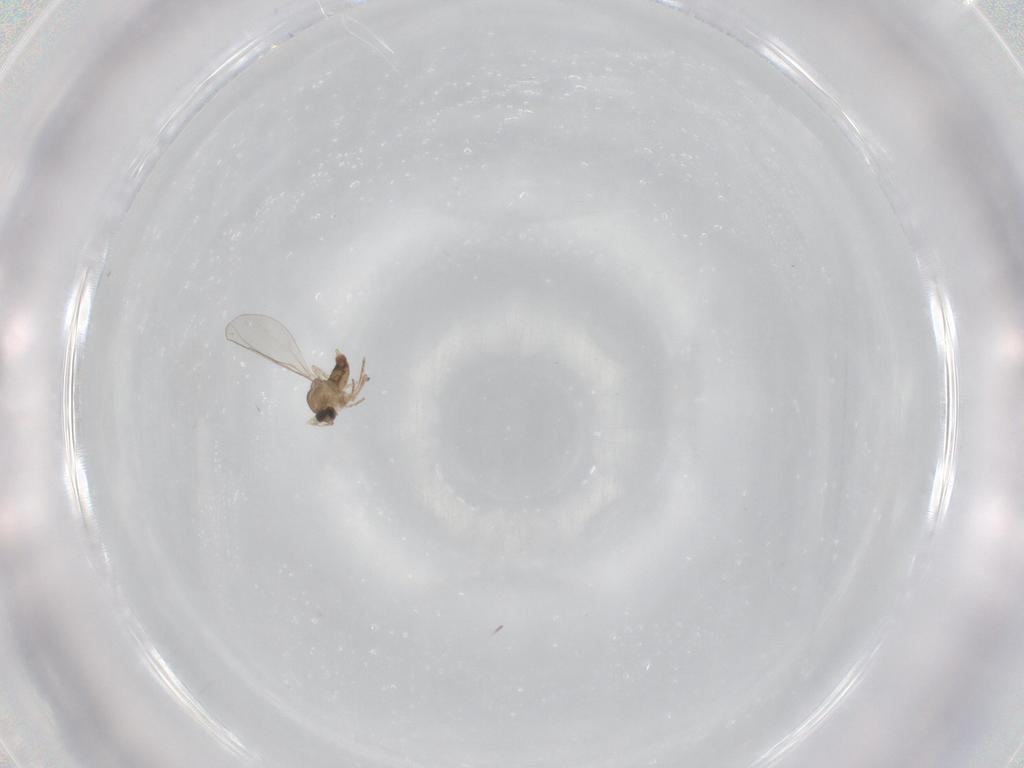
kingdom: Animalia
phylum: Arthropoda
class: Insecta
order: Diptera
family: Cecidomyiidae
